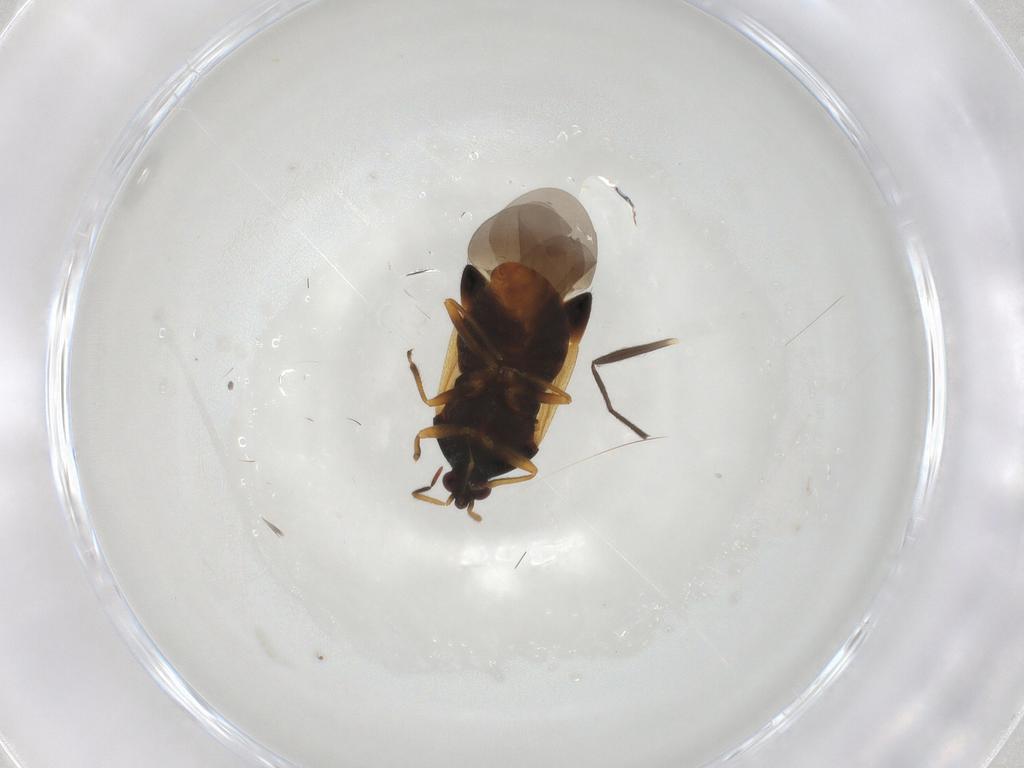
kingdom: Animalia
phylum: Arthropoda
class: Insecta
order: Hemiptera
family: Anthocoridae
